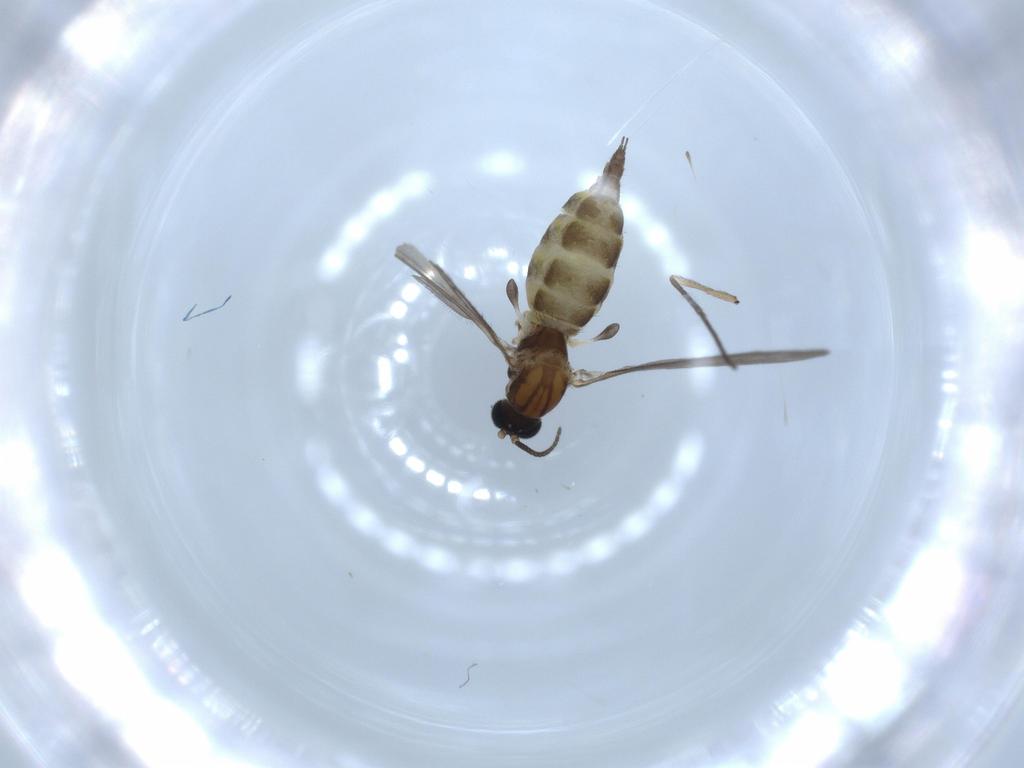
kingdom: Animalia
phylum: Arthropoda
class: Insecta
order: Diptera
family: Sciaridae
